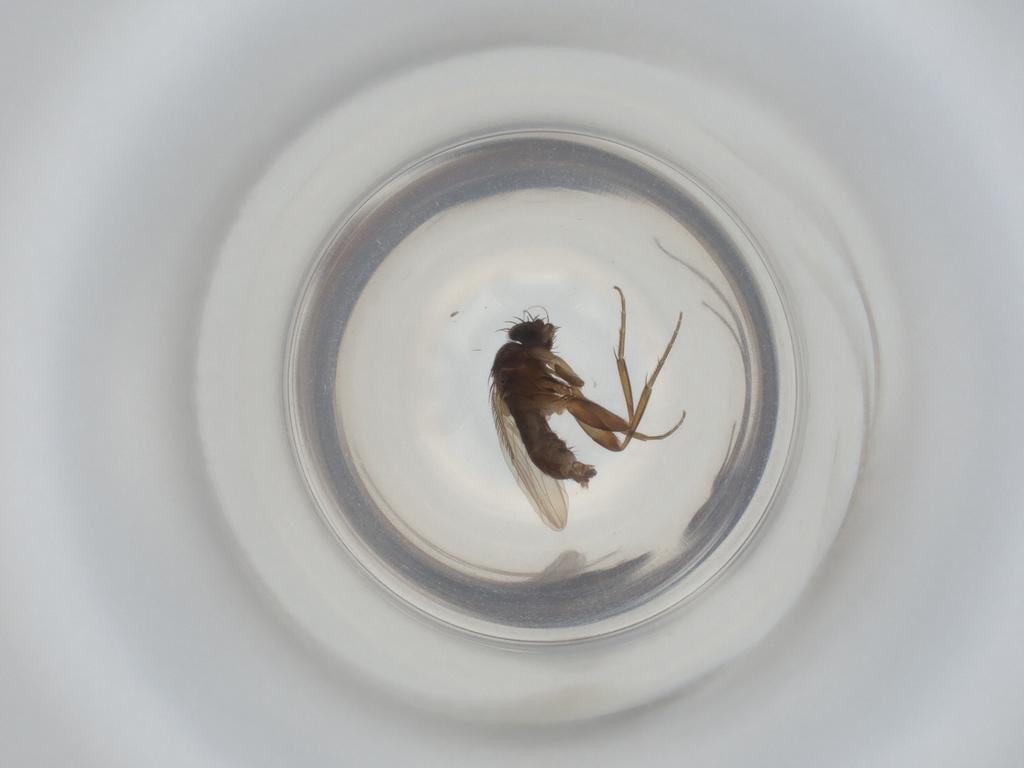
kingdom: Animalia
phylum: Arthropoda
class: Insecta
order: Diptera
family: Phoridae
